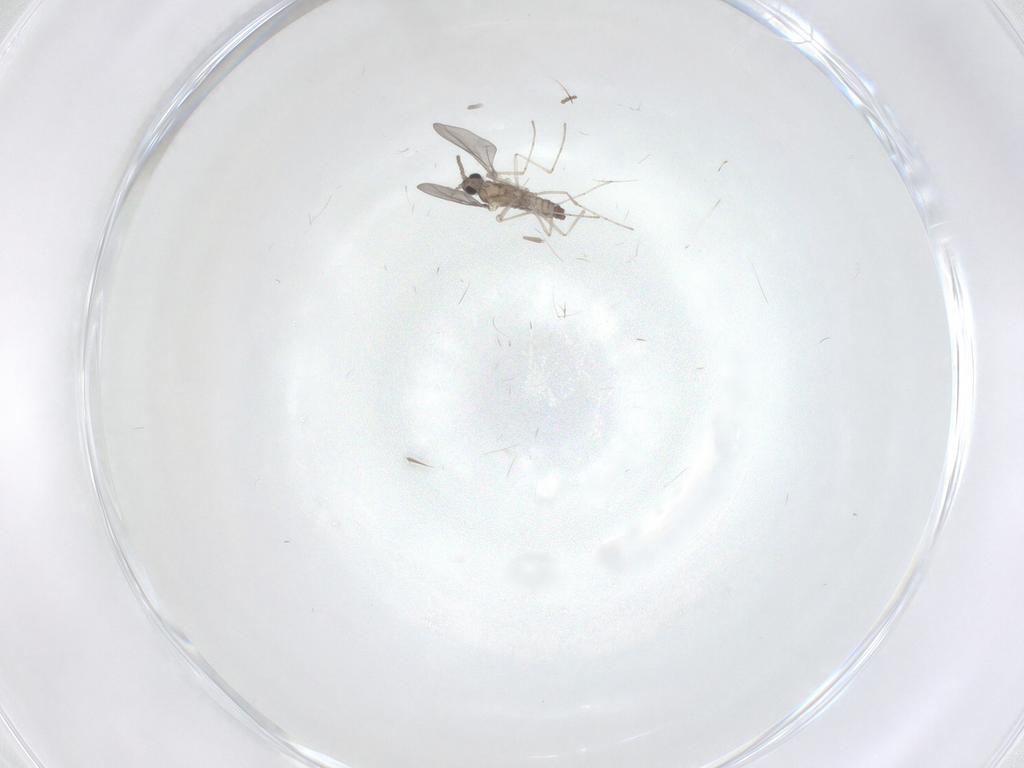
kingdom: Animalia
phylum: Arthropoda
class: Insecta
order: Diptera
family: Cecidomyiidae
